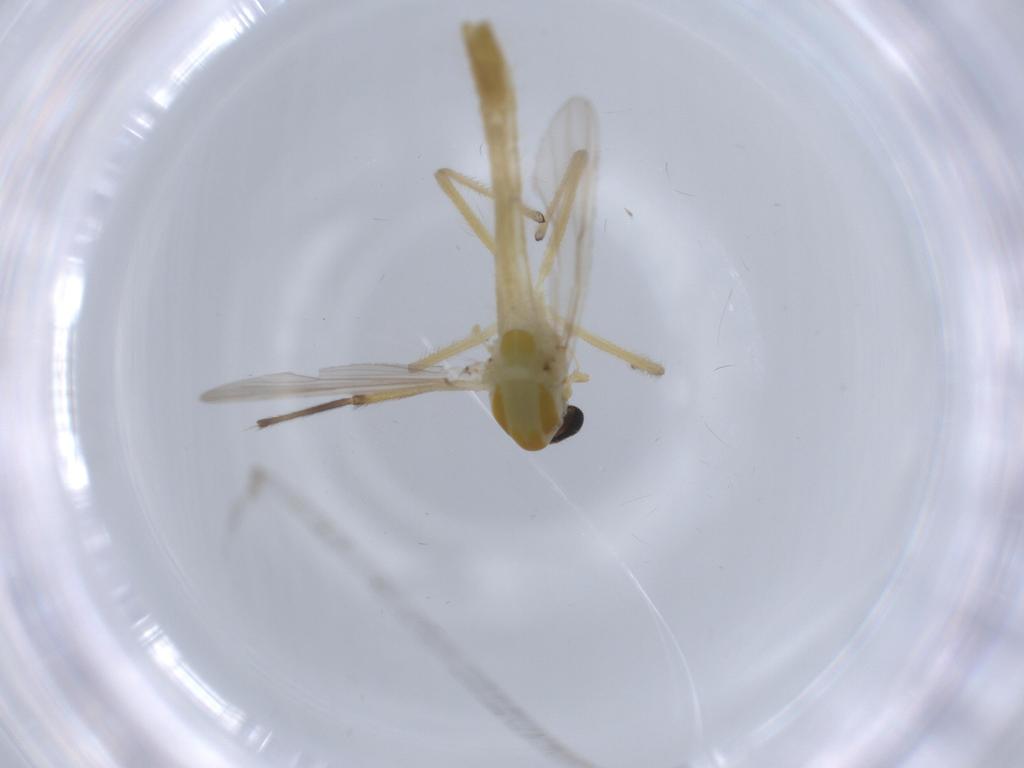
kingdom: Animalia
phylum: Arthropoda
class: Insecta
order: Diptera
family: Chironomidae
